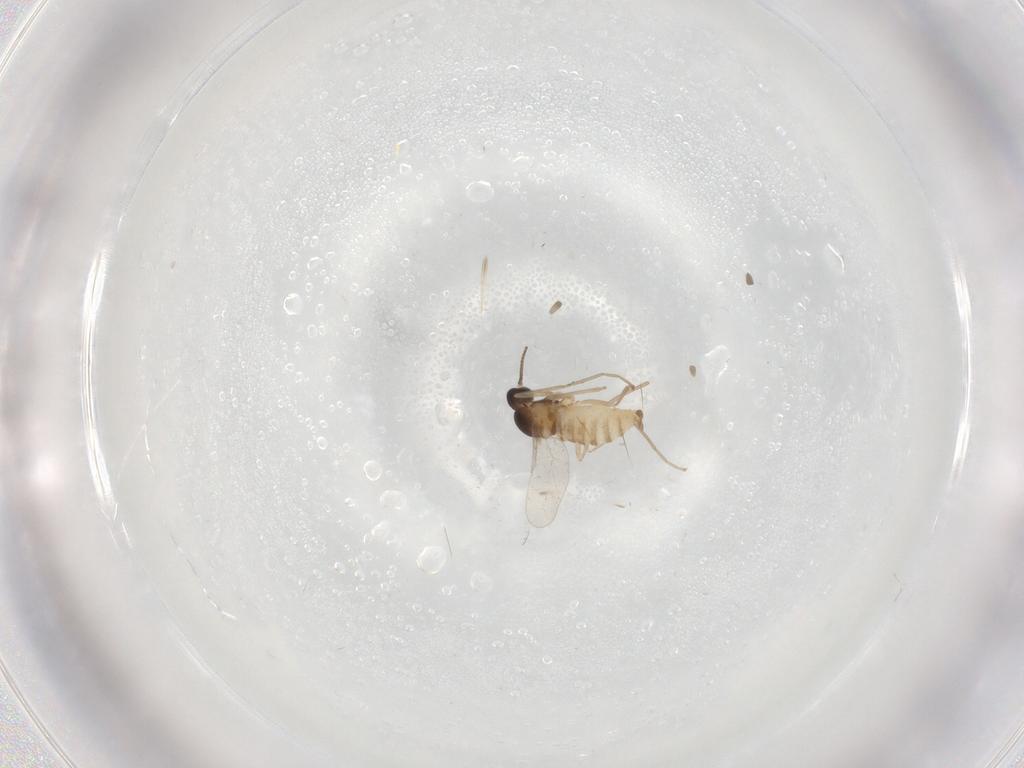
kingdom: Animalia
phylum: Arthropoda
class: Insecta
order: Diptera
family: Cecidomyiidae
